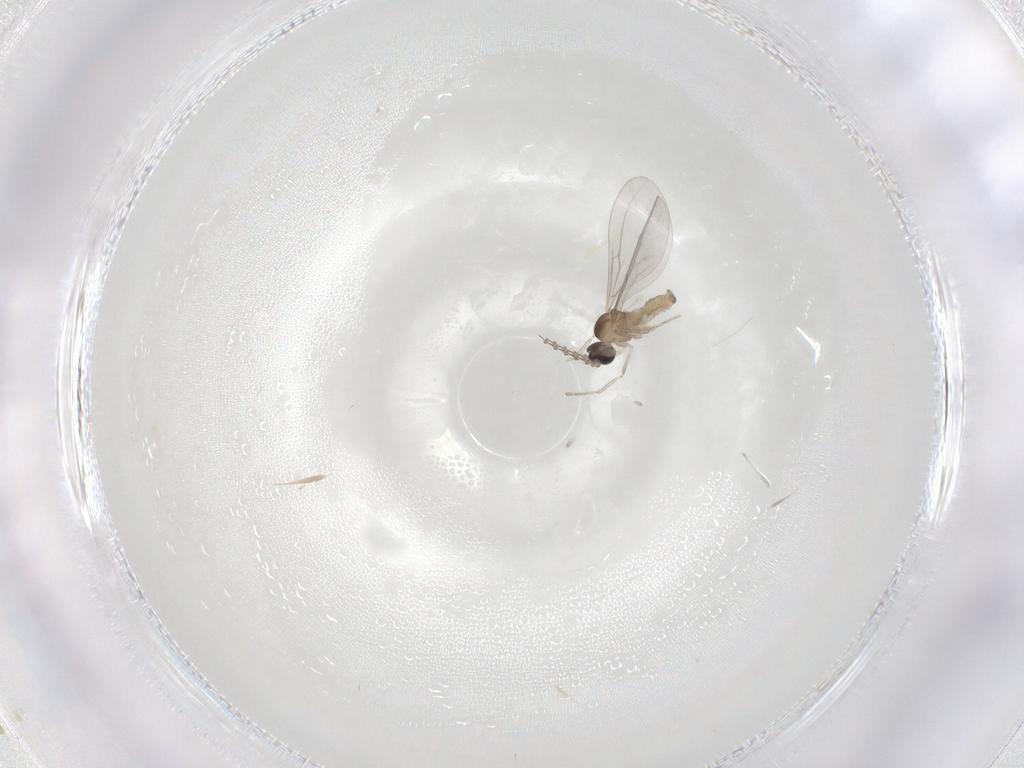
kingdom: Animalia
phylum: Arthropoda
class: Insecta
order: Diptera
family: Cecidomyiidae
